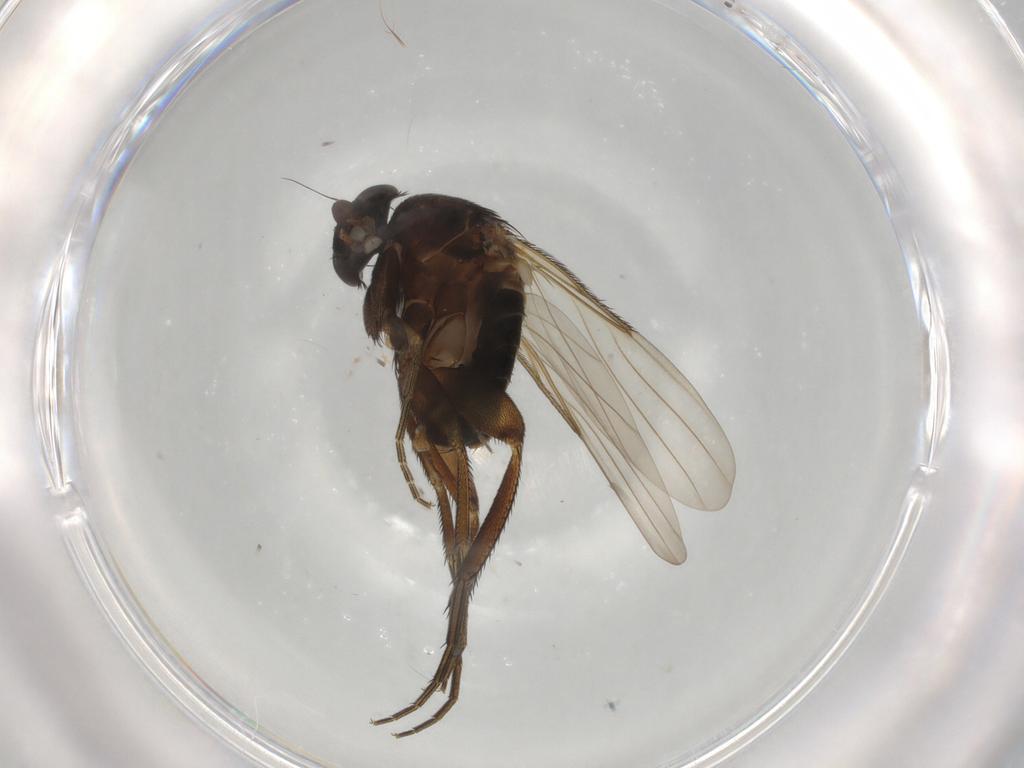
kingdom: Animalia
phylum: Arthropoda
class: Insecta
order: Diptera
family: Phoridae
